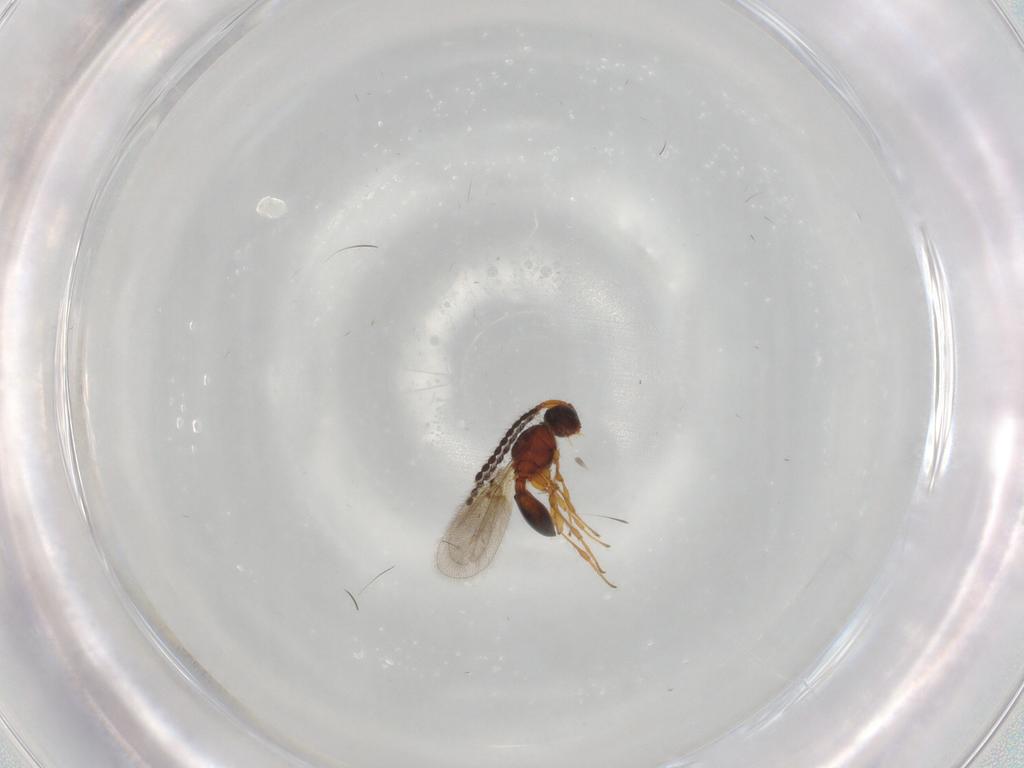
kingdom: Animalia
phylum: Arthropoda
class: Insecta
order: Hymenoptera
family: Diapriidae
